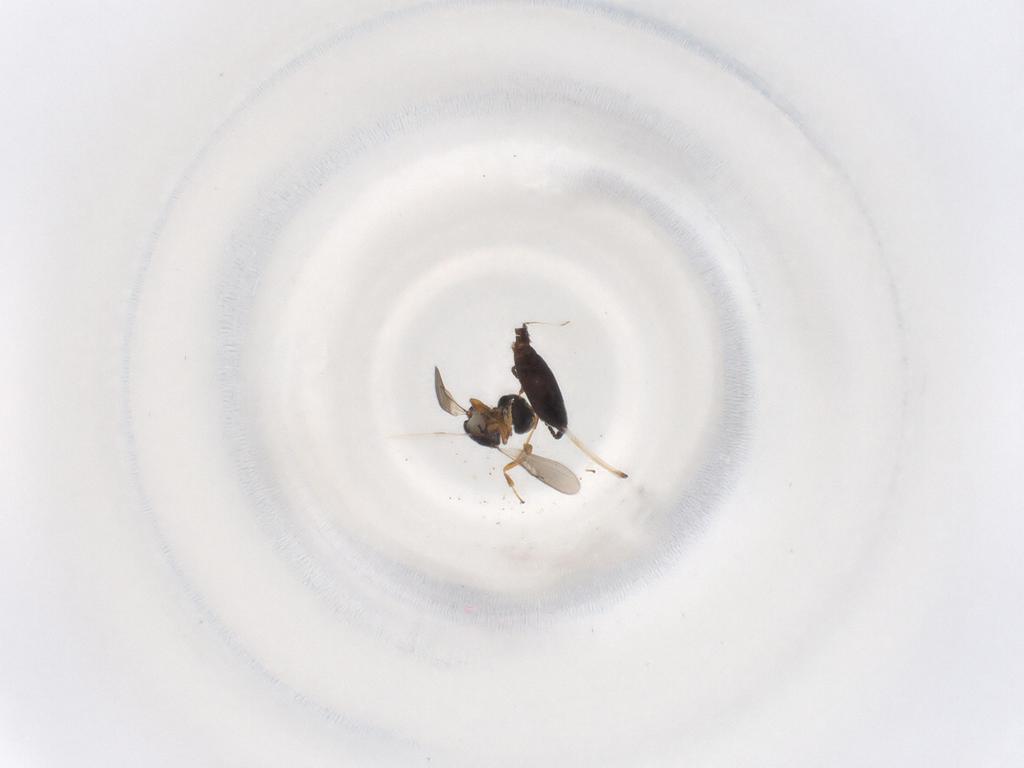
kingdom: Animalia
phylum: Arthropoda
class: Insecta
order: Hymenoptera
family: Scelionidae
